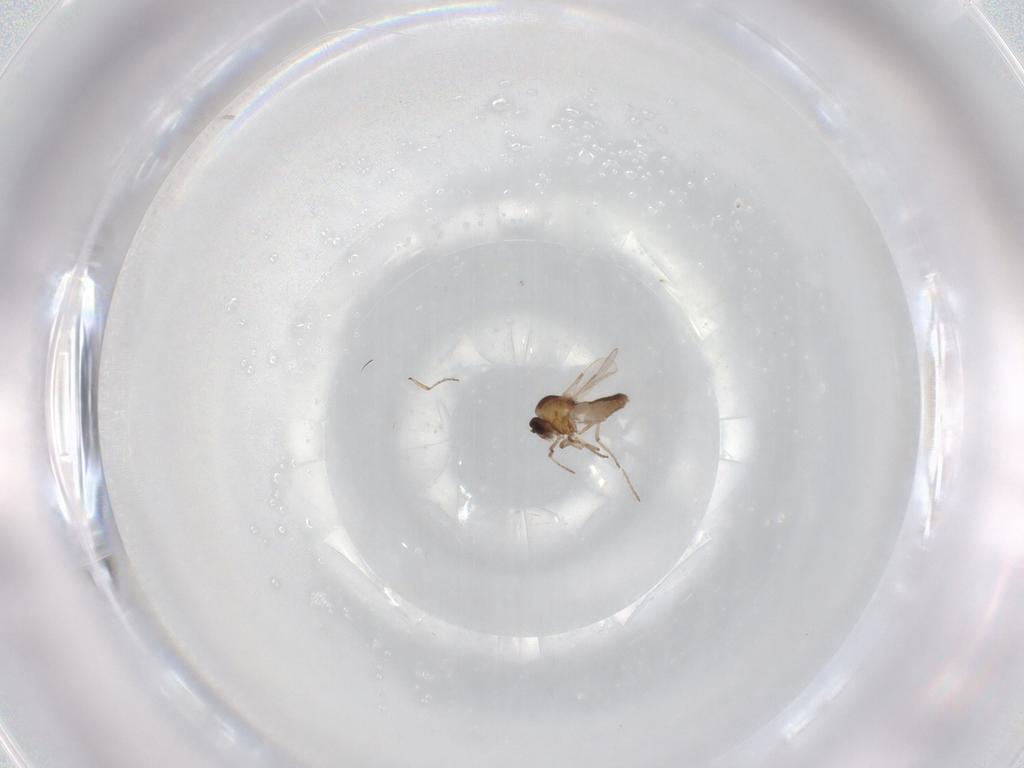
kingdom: Animalia
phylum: Arthropoda
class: Insecta
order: Diptera
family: Ceratopogonidae
